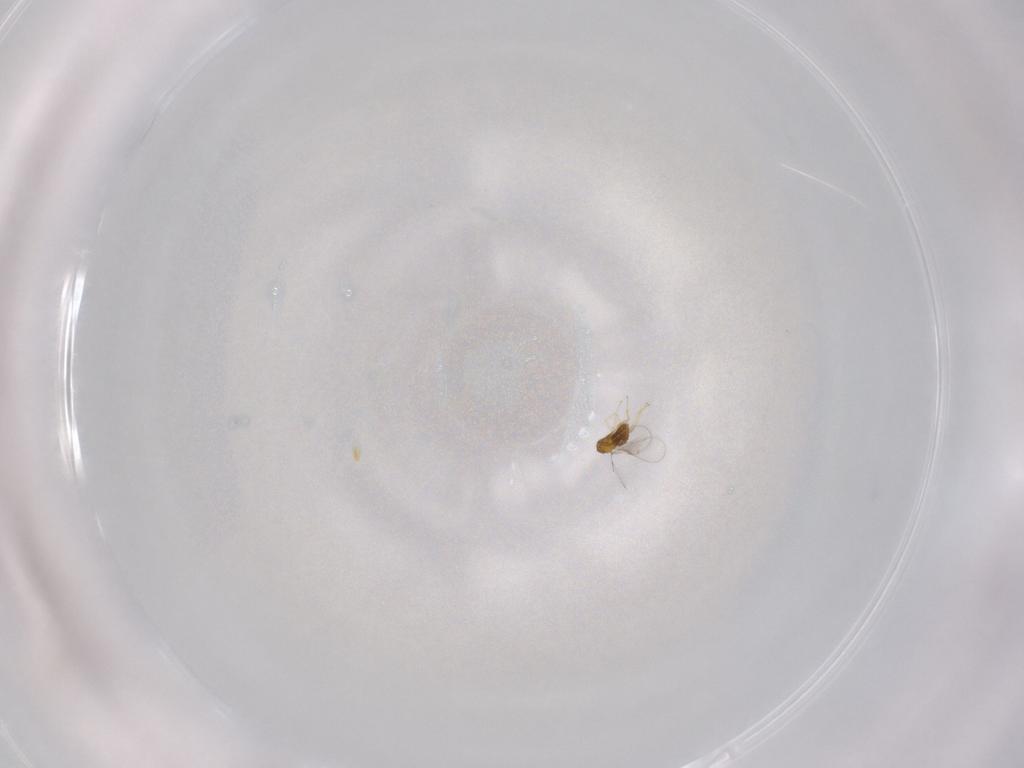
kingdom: Animalia
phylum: Arthropoda
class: Insecta
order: Hymenoptera
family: Trichogrammatidae
